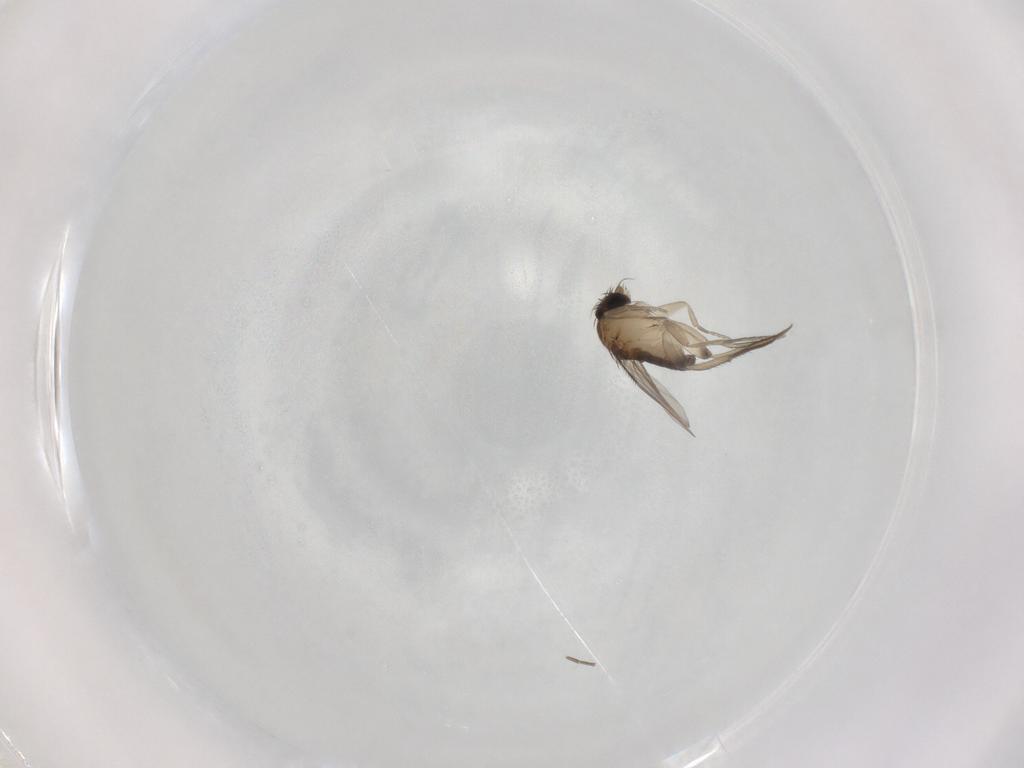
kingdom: Animalia
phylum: Arthropoda
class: Insecta
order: Diptera
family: Phoridae
